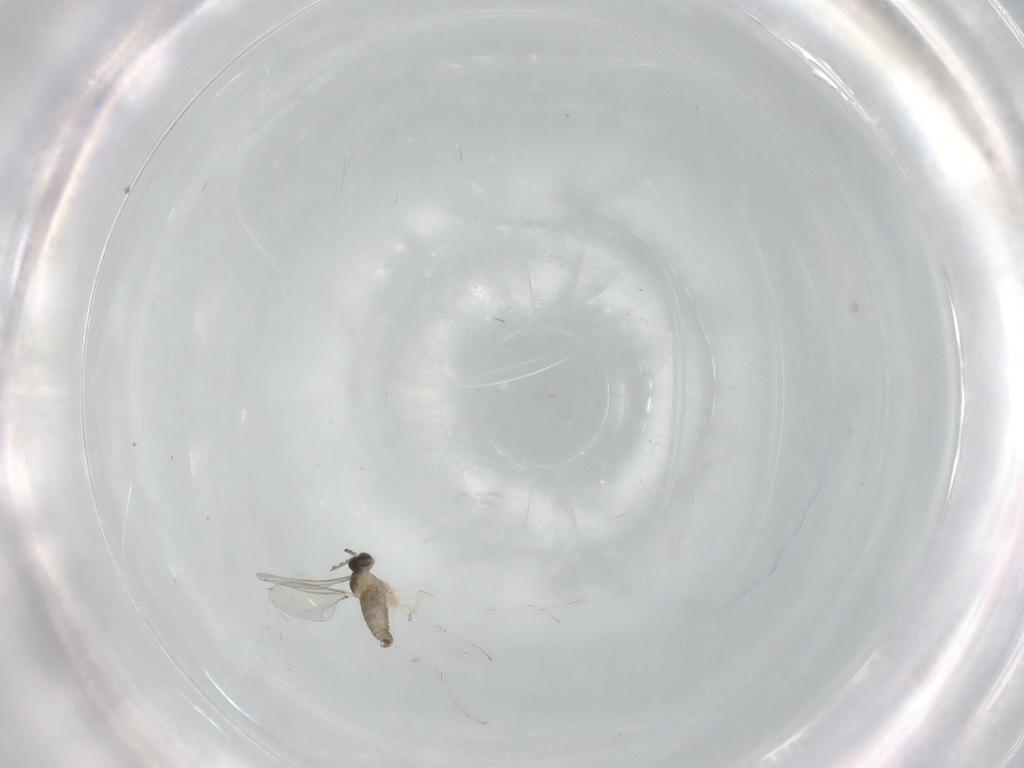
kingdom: Animalia
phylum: Arthropoda
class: Insecta
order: Diptera
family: Cecidomyiidae
